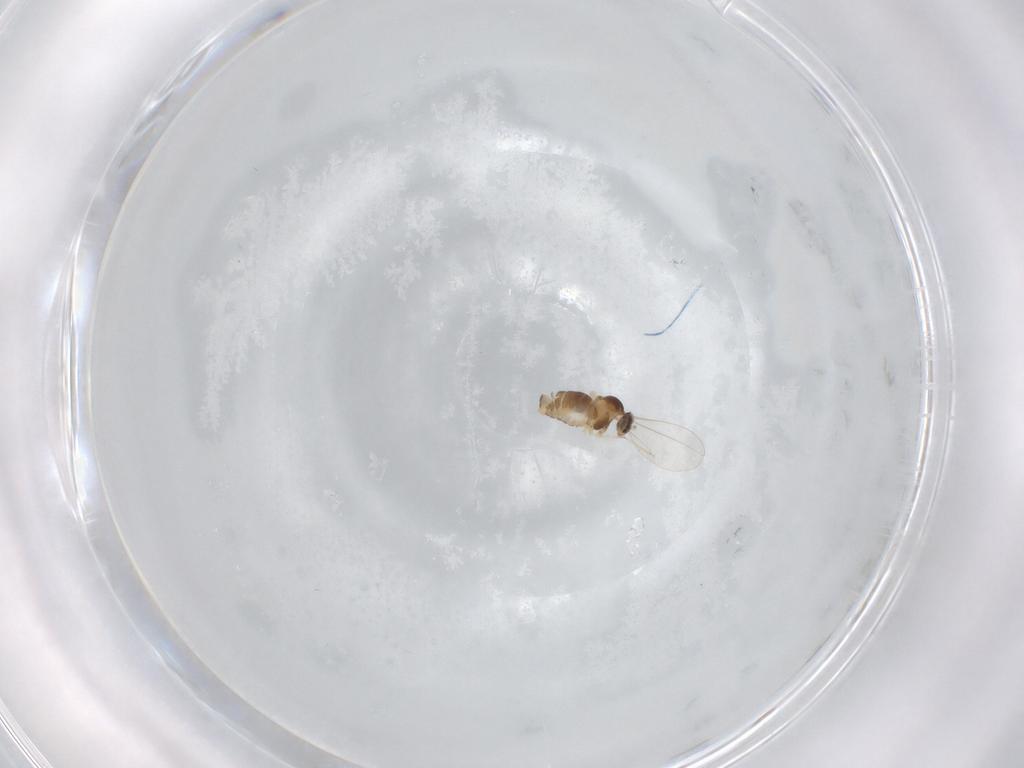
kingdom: Animalia
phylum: Arthropoda
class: Insecta
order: Diptera
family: Cecidomyiidae
